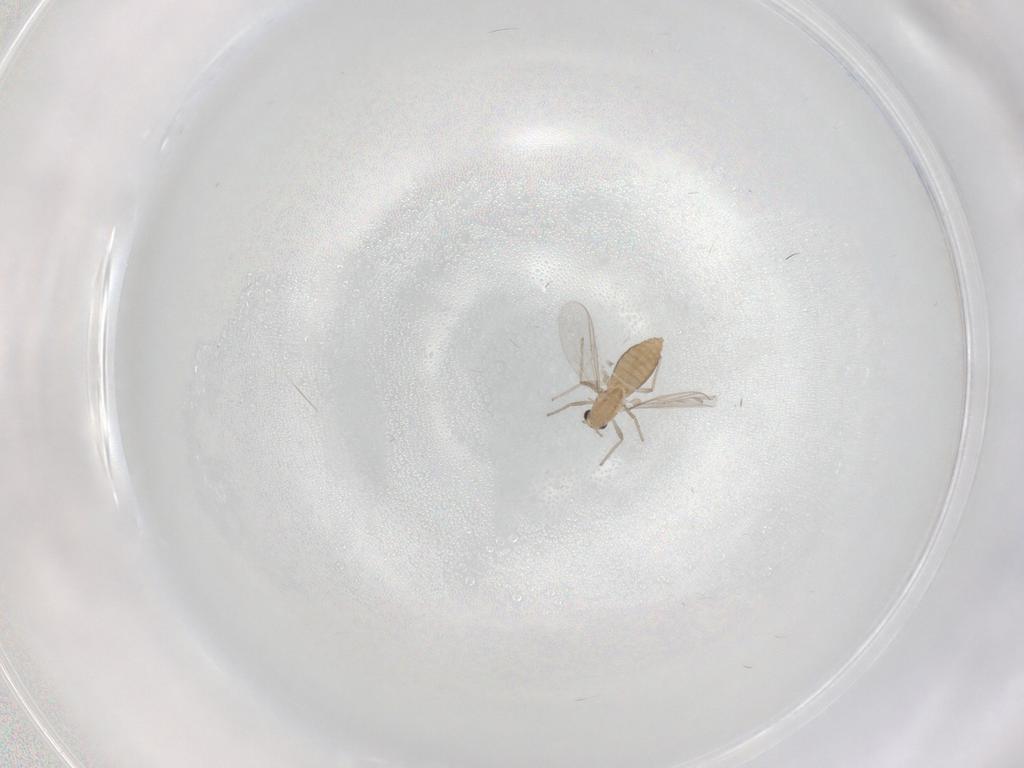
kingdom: Animalia
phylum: Arthropoda
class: Insecta
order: Diptera
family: Chironomidae
